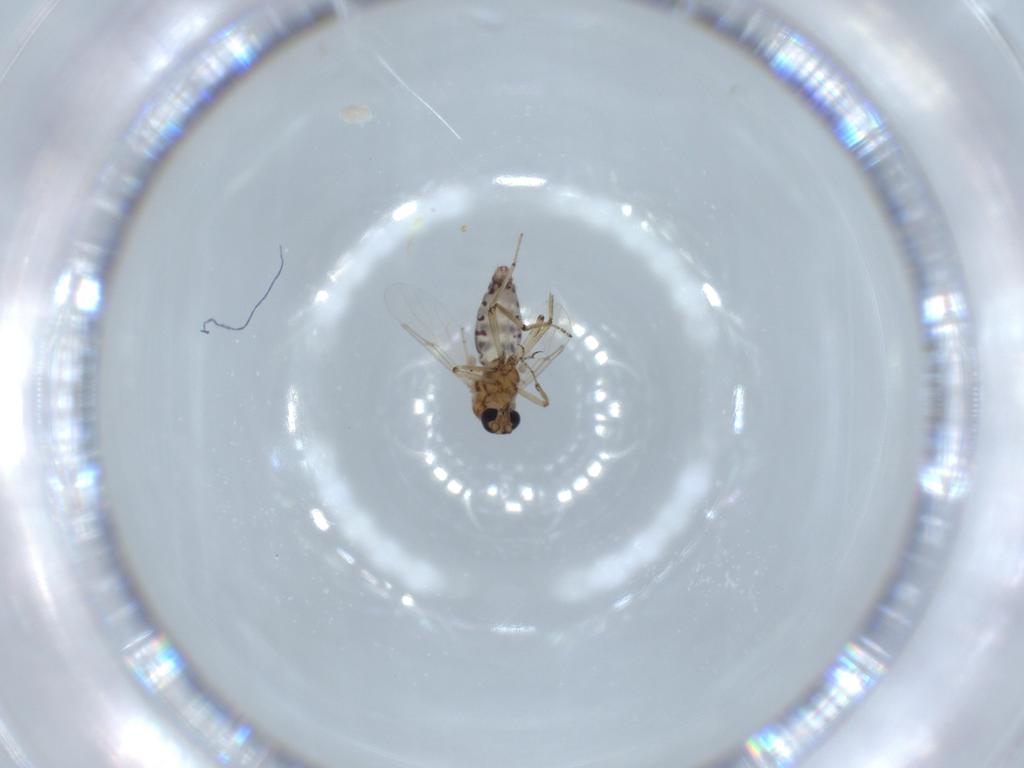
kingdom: Animalia
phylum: Arthropoda
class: Insecta
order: Diptera
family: Ceratopogonidae
